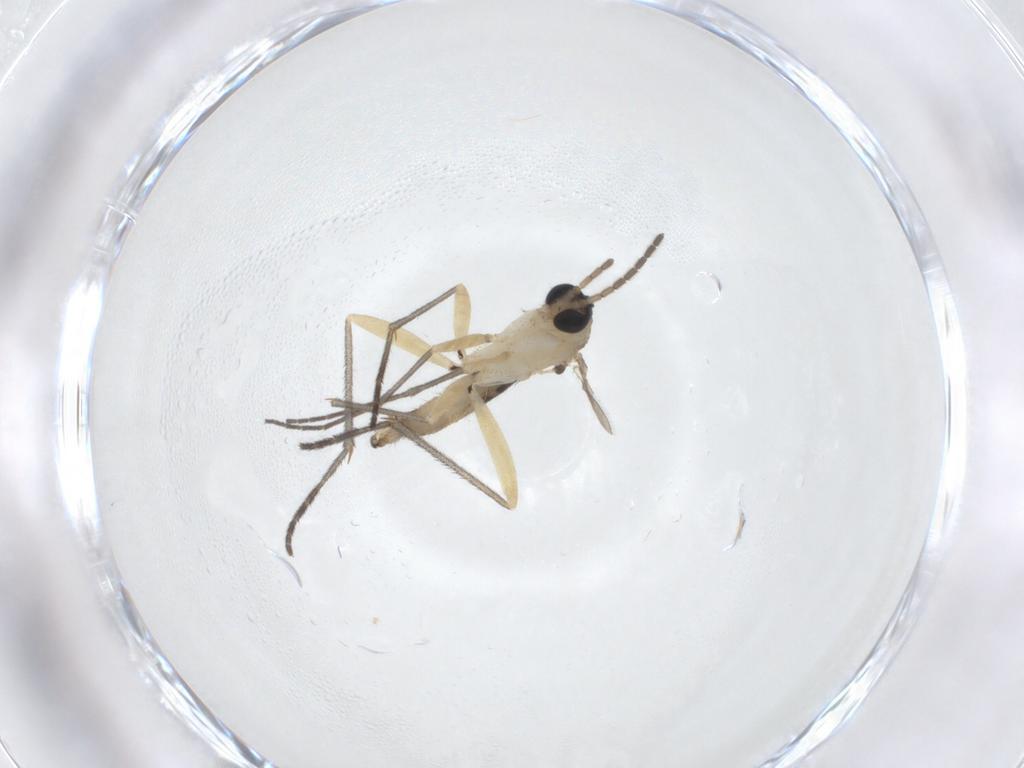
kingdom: Animalia
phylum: Arthropoda
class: Insecta
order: Diptera
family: Sciaridae
